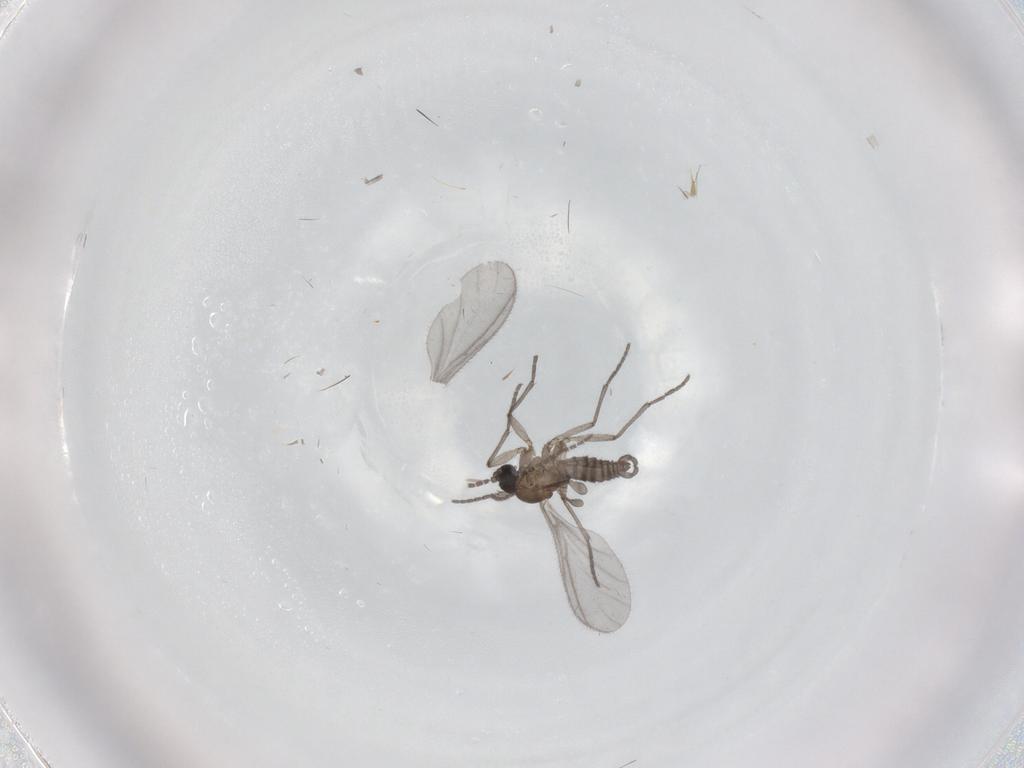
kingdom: Animalia
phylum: Arthropoda
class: Insecta
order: Diptera
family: Sciaridae
